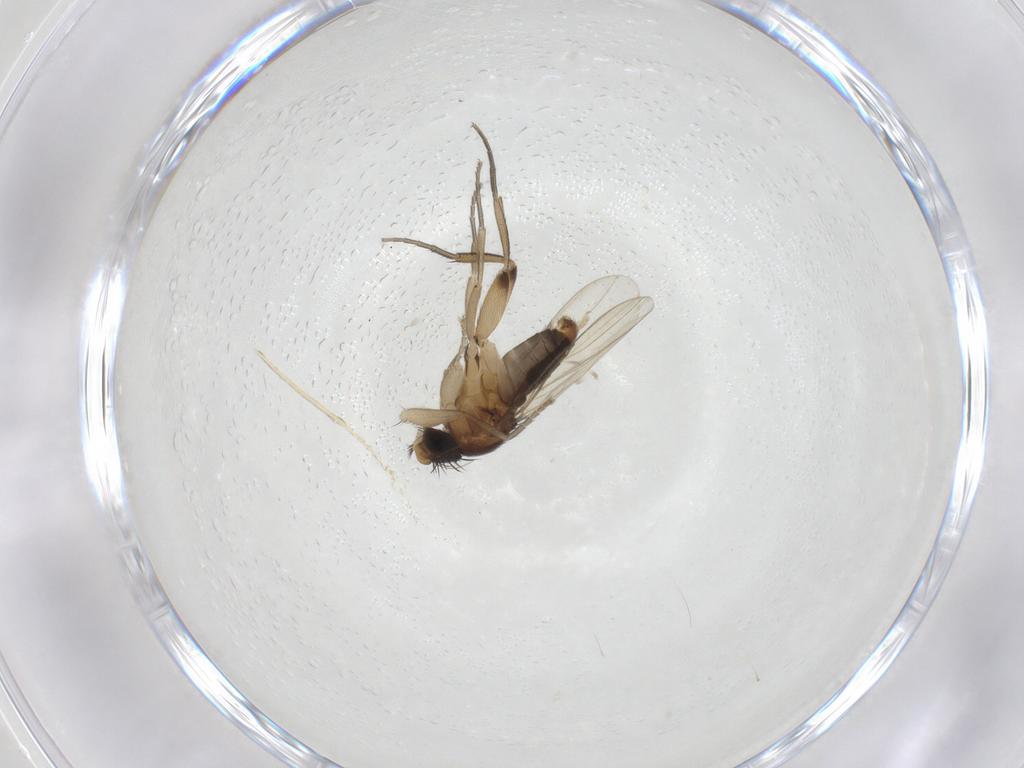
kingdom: Animalia
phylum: Arthropoda
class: Insecta
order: Diptera
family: Phoridae
